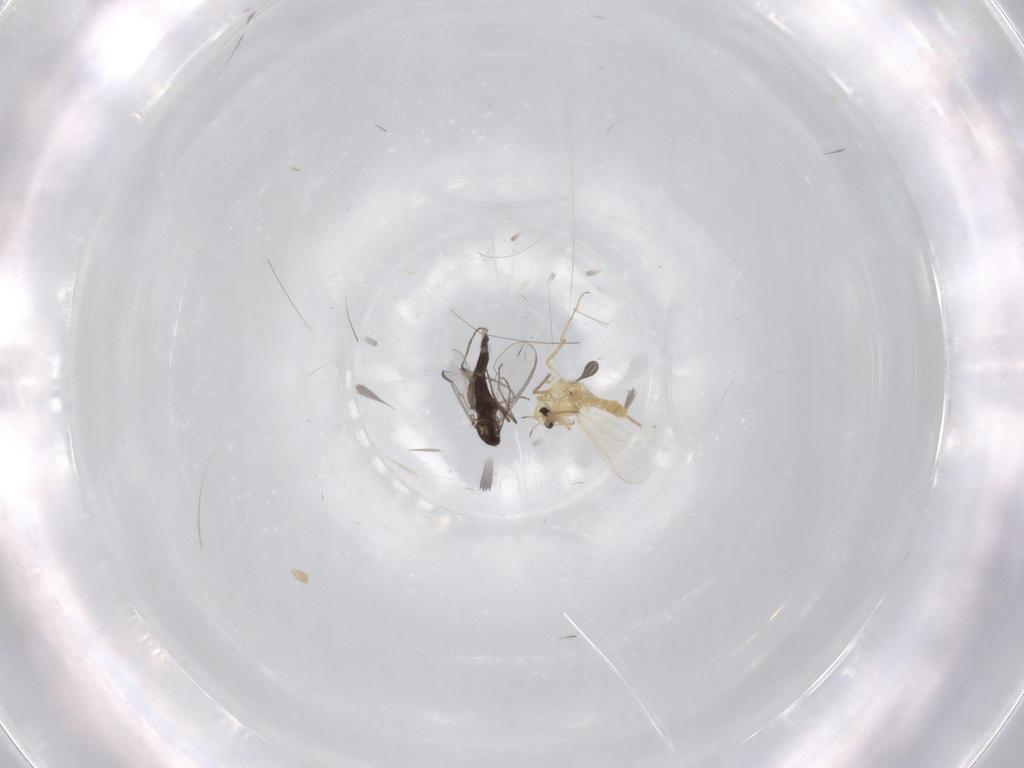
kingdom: Animalia
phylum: Arthropoda
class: Insecta
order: Diptera
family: Chironomidae
